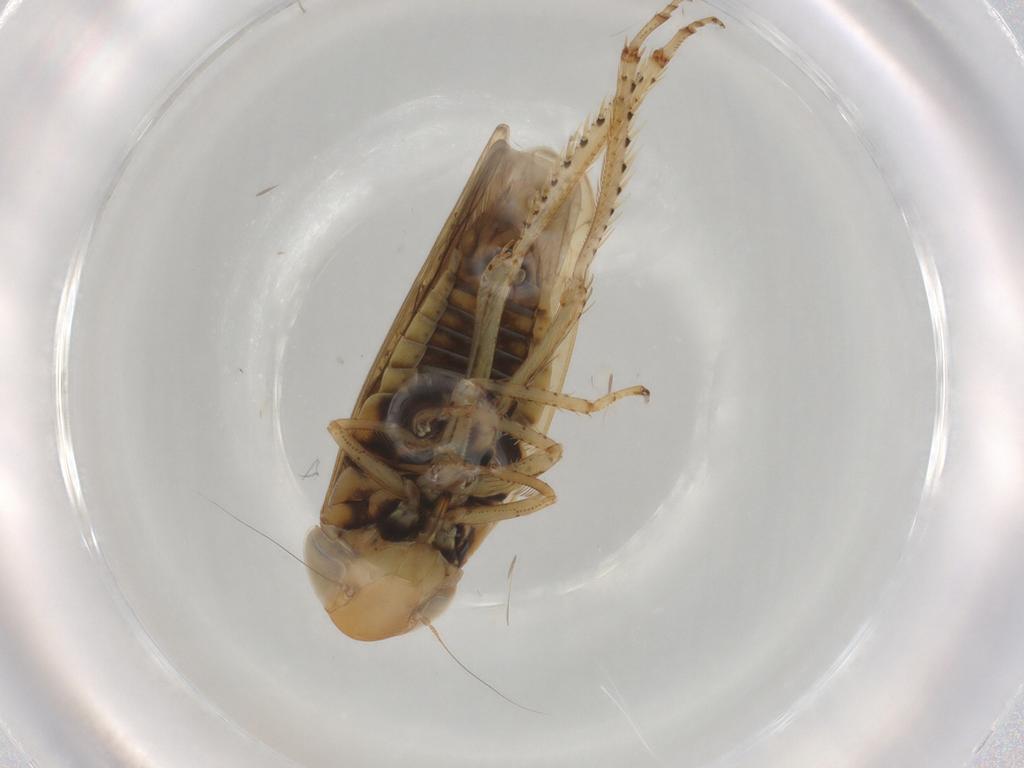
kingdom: Animalia
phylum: Arthropoda
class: Insecta
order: Hemiptera
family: Cicadellidae
